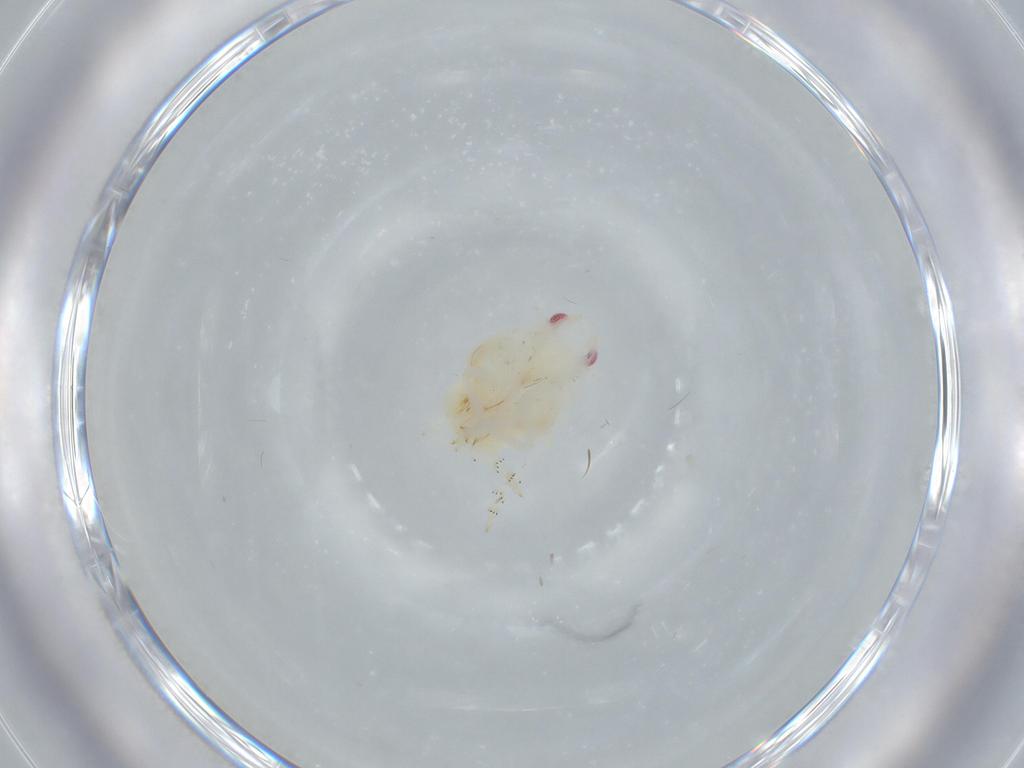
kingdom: Animalia
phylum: Arthropoda
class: Insecta
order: Hemiptera
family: Flatidae
